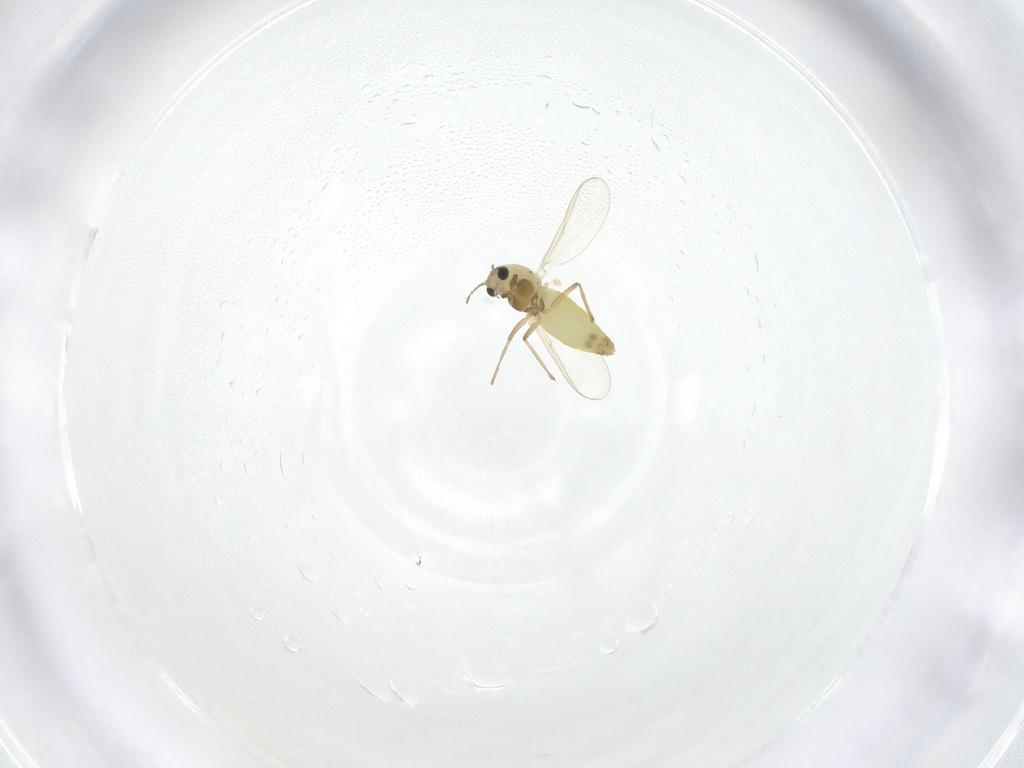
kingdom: Animalia
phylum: Arthropoda
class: Insecta
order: Diptera
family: Chironomidae
